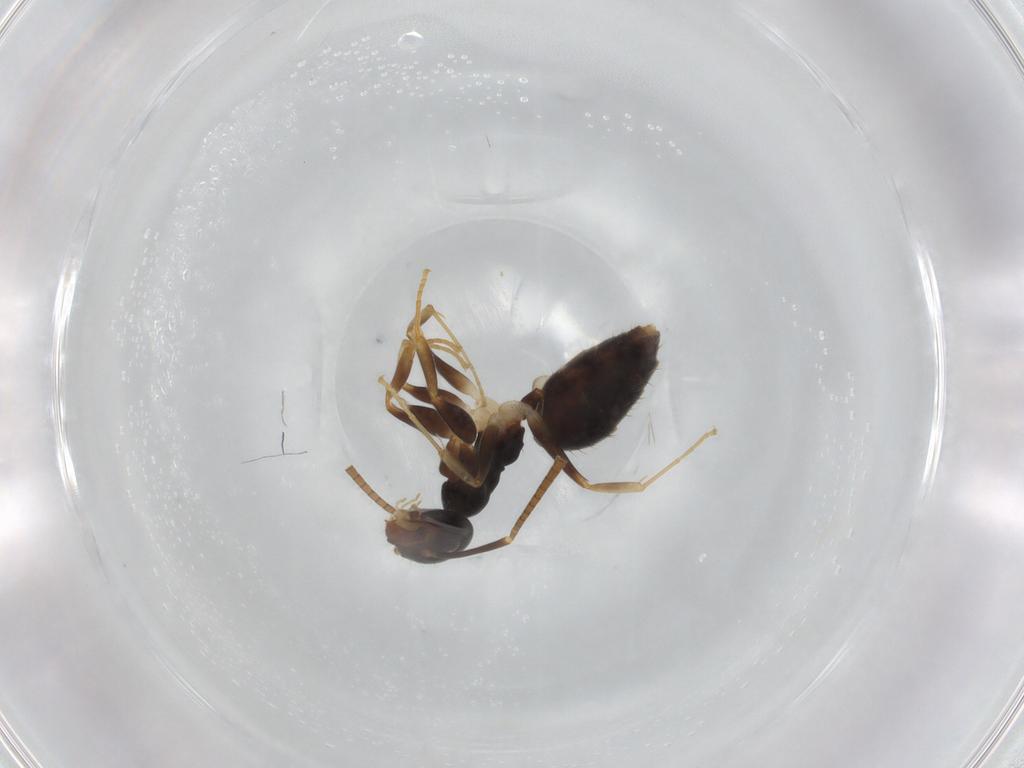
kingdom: Animalia
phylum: Arthropoda
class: Insecta
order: Hymenoptera
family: Formicidae
